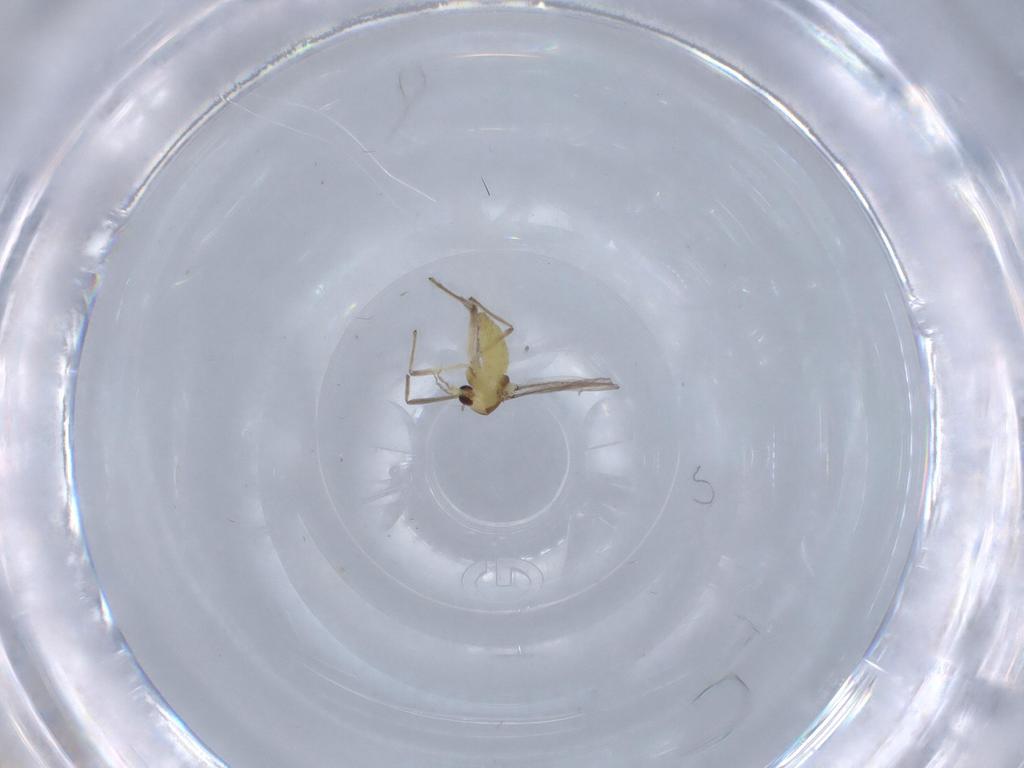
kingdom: Animalia
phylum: Arthropoda
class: Insecta
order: Diptera
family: Chironomidae
